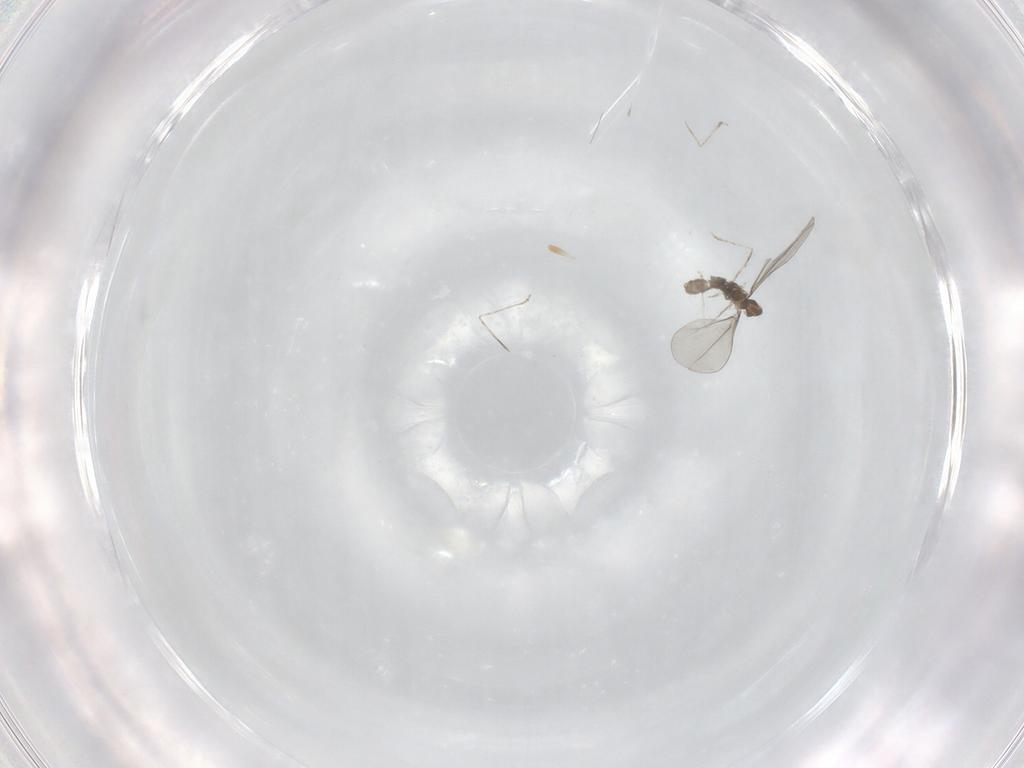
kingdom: Animalia
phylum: Arthropoda
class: Insecta
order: Diptera
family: Cecidomyiidae
